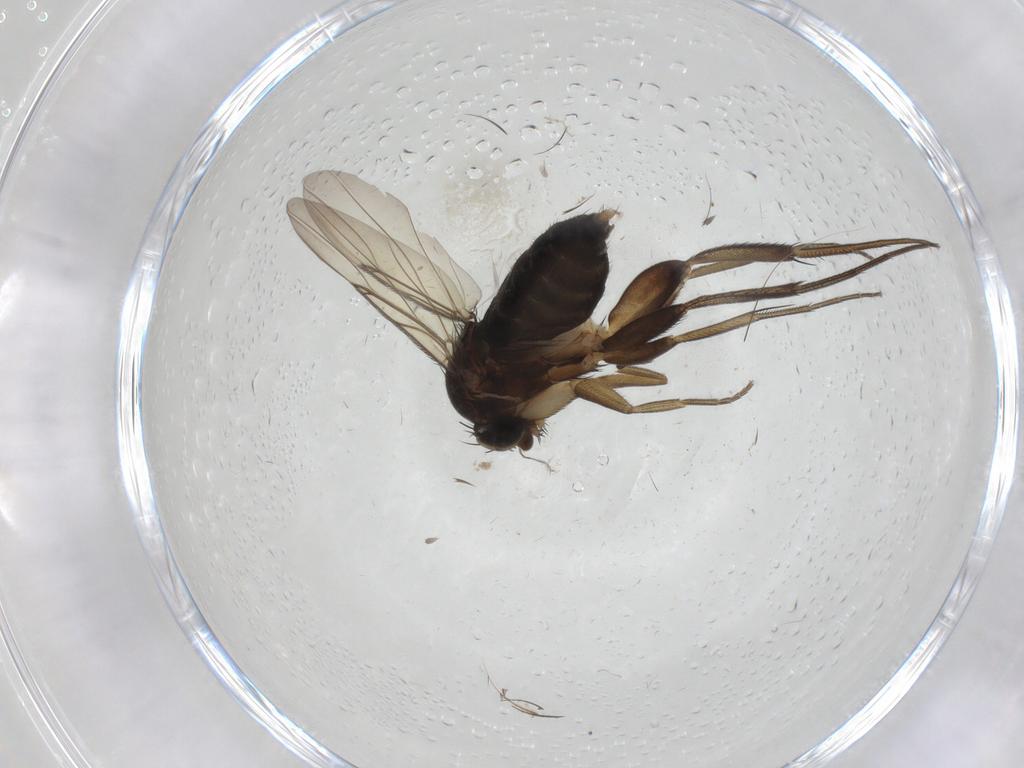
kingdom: Animalia
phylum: Arthropoda
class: Insecta
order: Diptera
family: Phoridae
